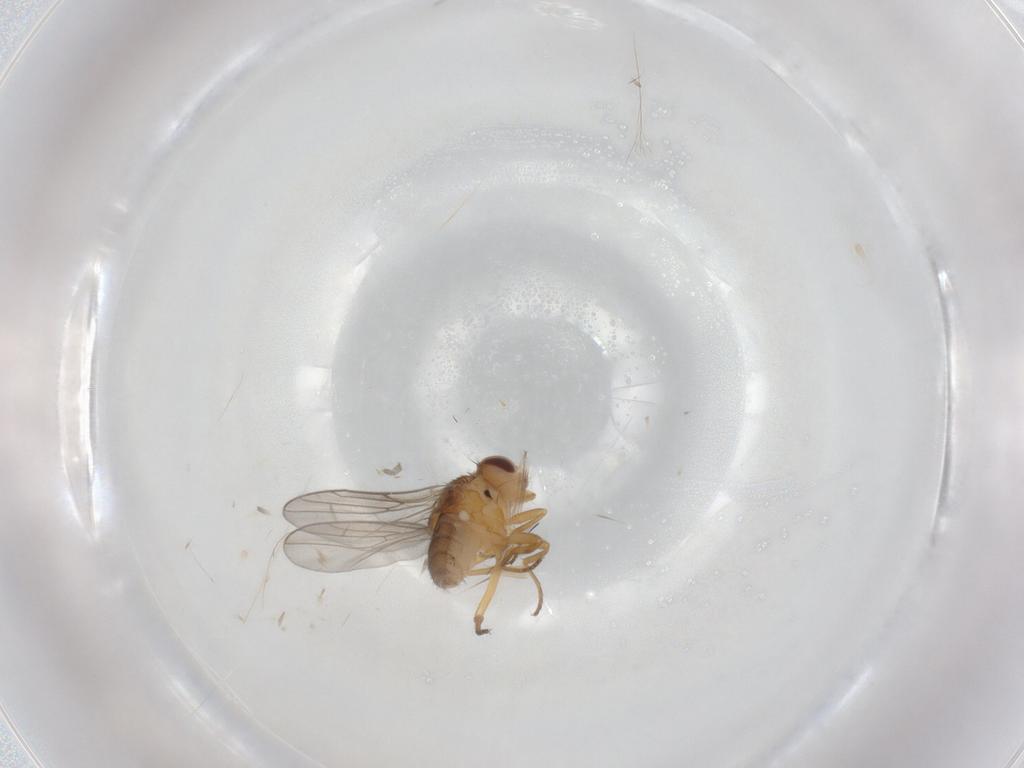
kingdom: Animalia
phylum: Arthropoda
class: Insecta
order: Diptera
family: Chloropidae
